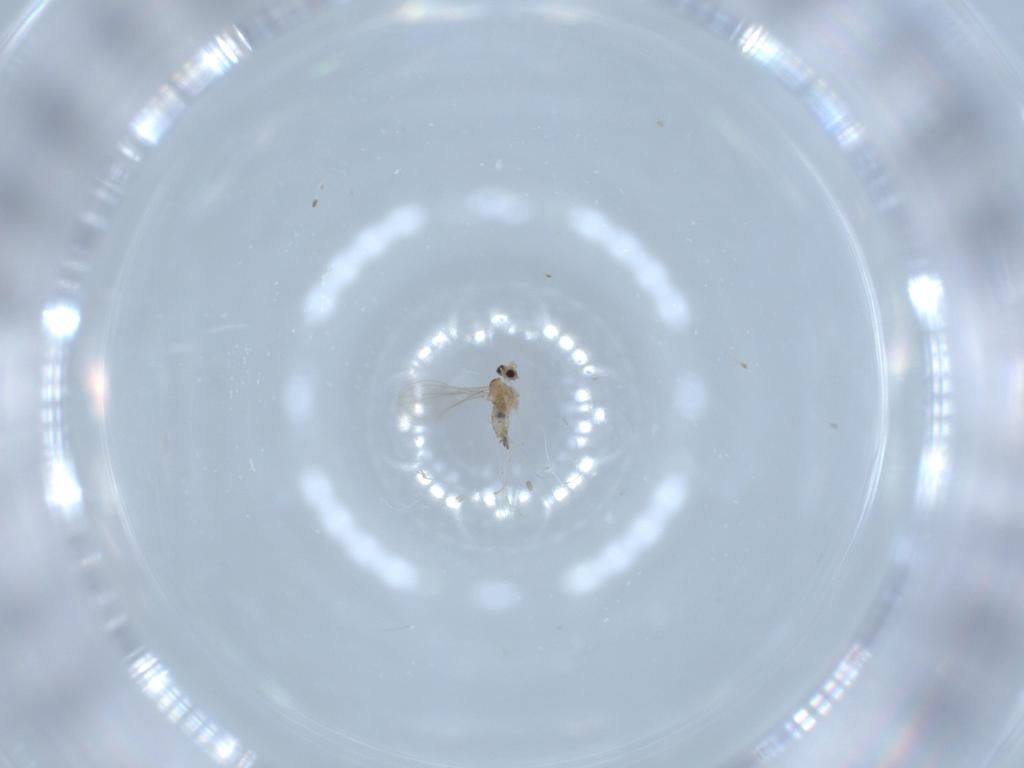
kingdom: Animalia
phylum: Arthropoda
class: Insecta
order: Diptera
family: Cecidomyiidae
